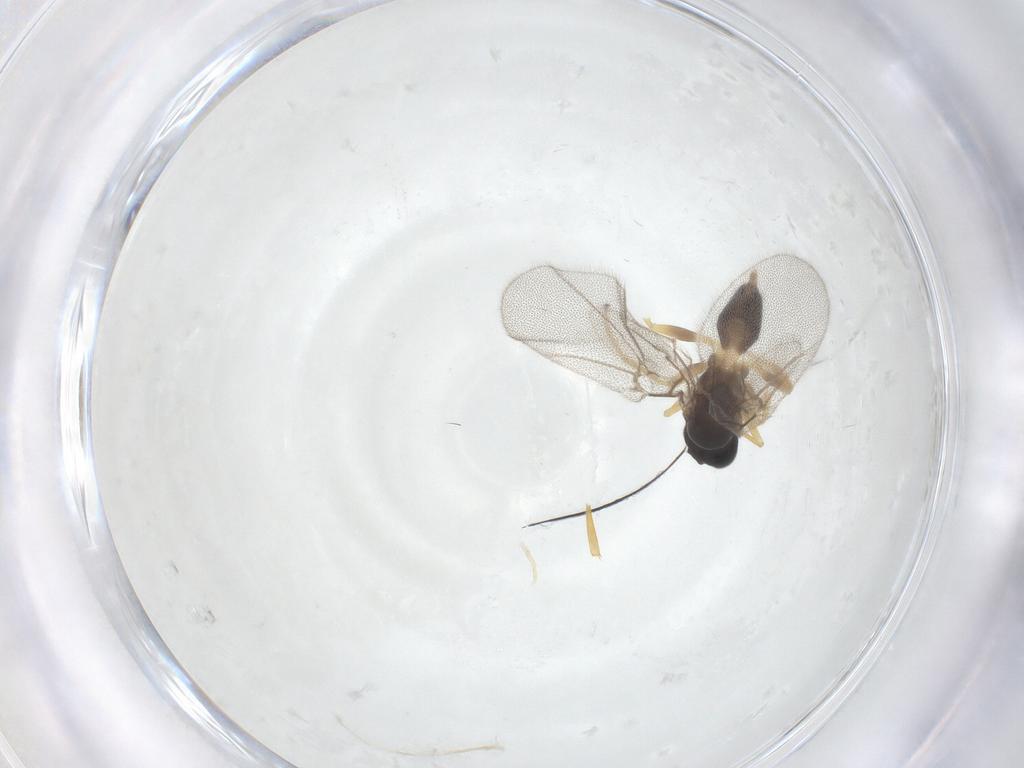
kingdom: Animalia
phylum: Arthropoda
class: Insecta
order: Hymenoptera
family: Cynipidae
